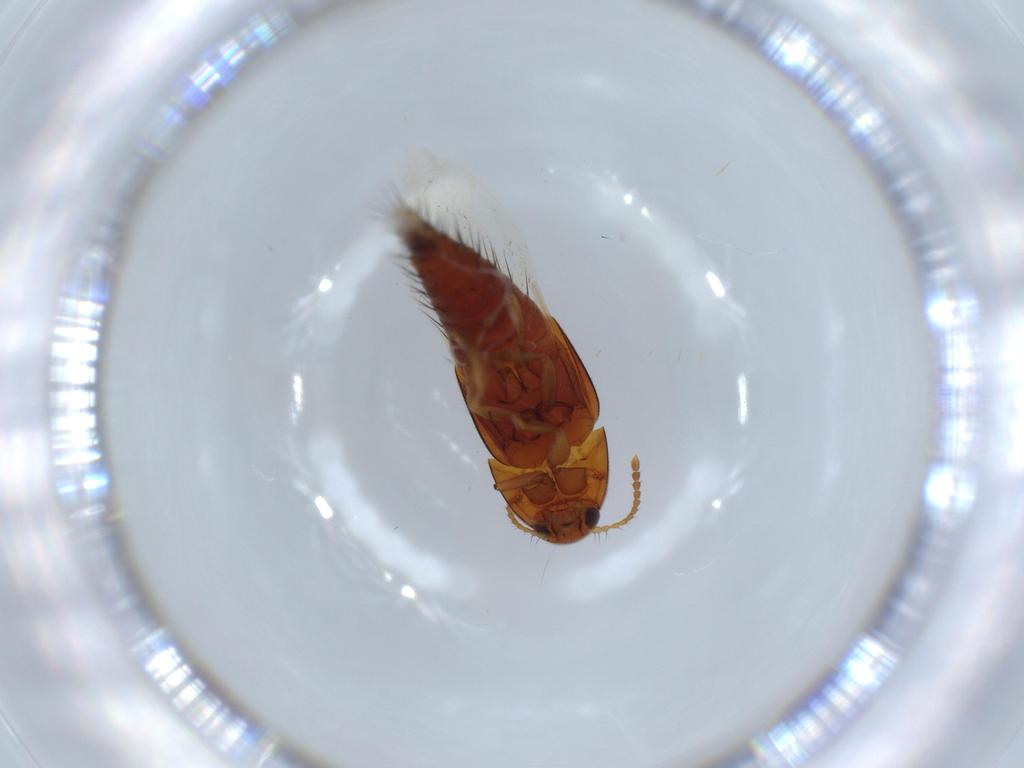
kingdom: Animalia
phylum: Arthropoda
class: Insecta
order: Coleoptera
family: Staphylinidae
